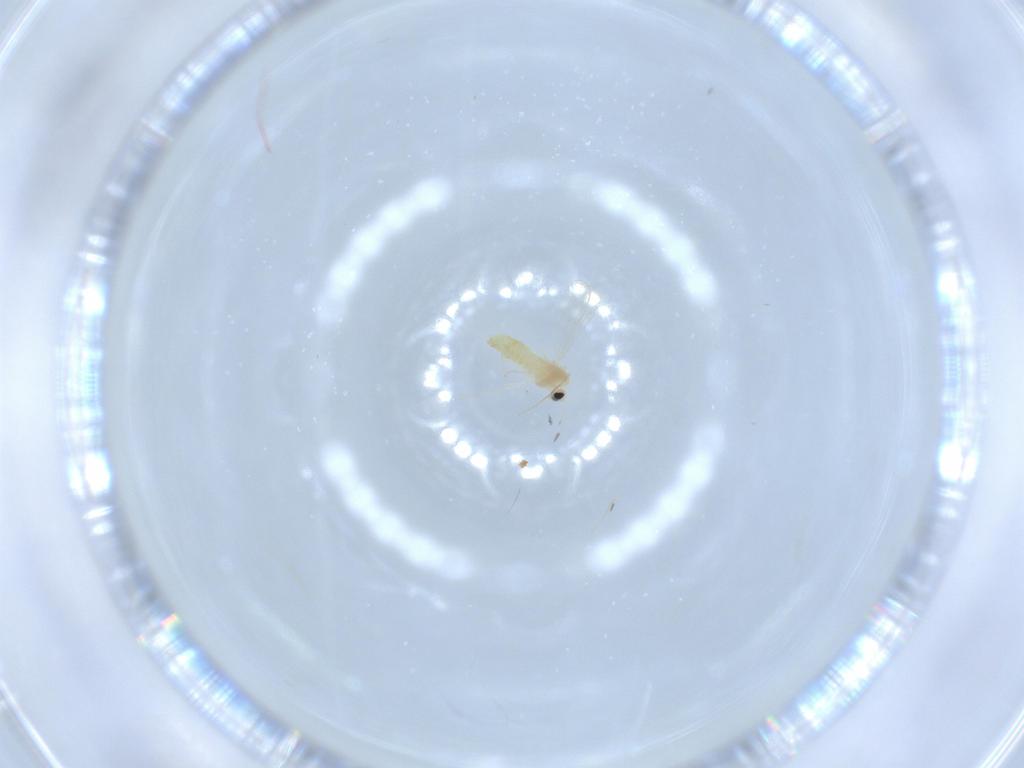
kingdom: Animalia
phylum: Arthropoda
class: Insecta
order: Diptera
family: Chironomidae
